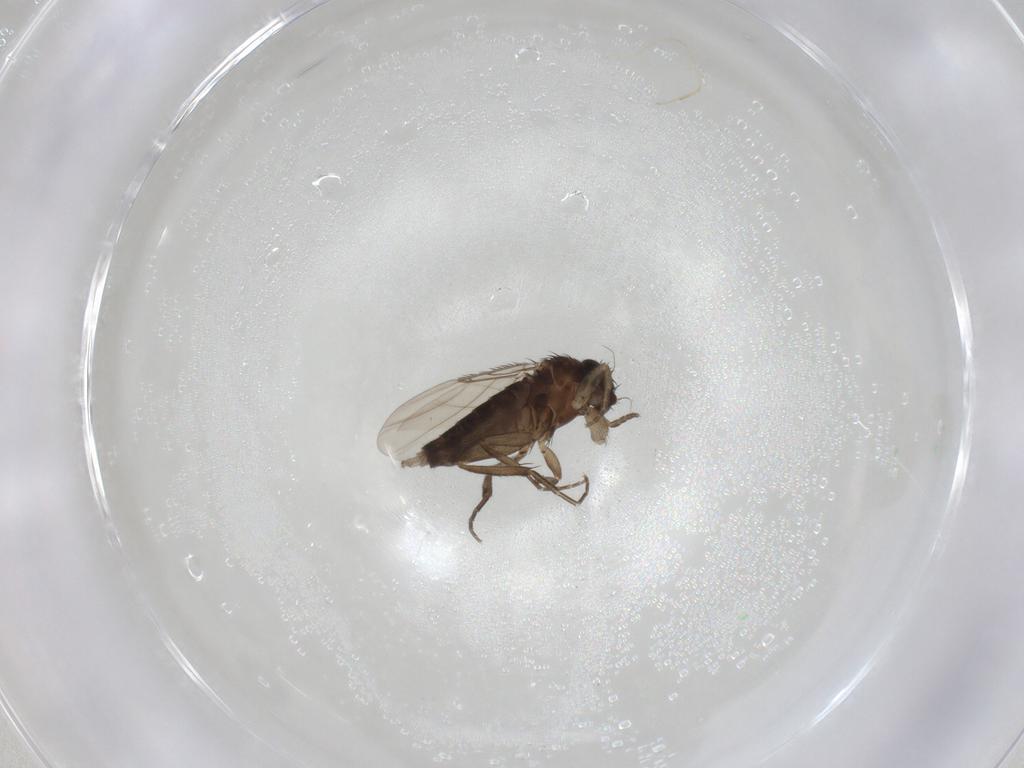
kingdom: Animalia
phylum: Arthropoda
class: Insecta
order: Diptera
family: Phoridae
